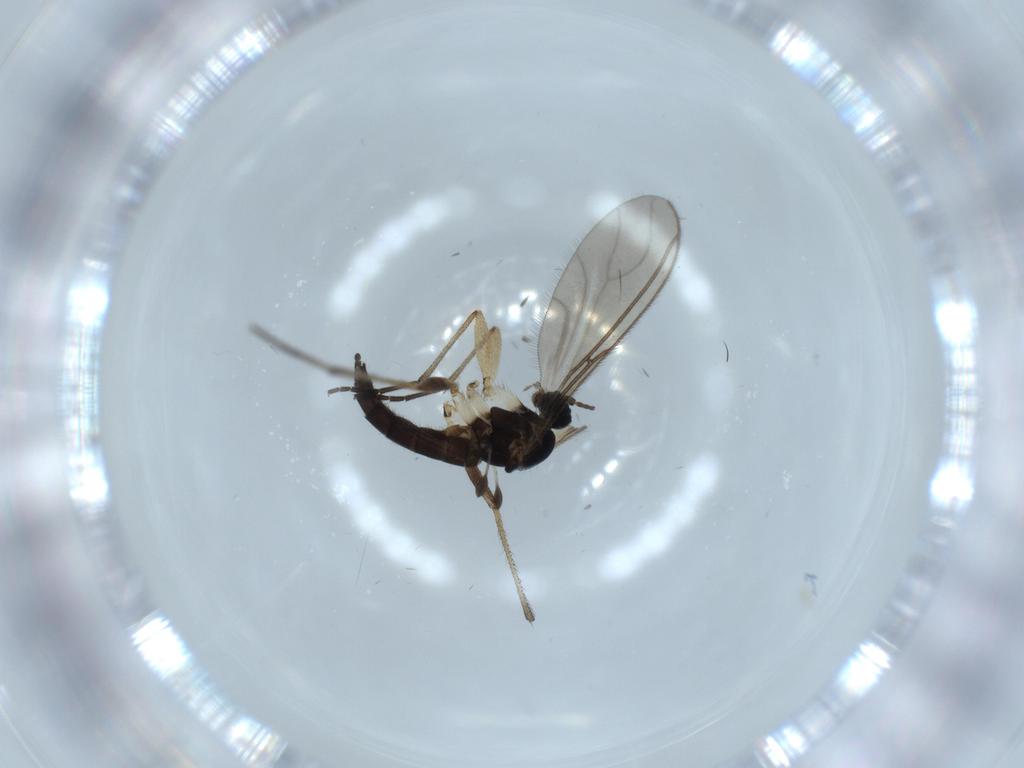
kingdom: Animalia
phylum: Arthropoda
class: Insecta
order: Diptera
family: Sciaridae
